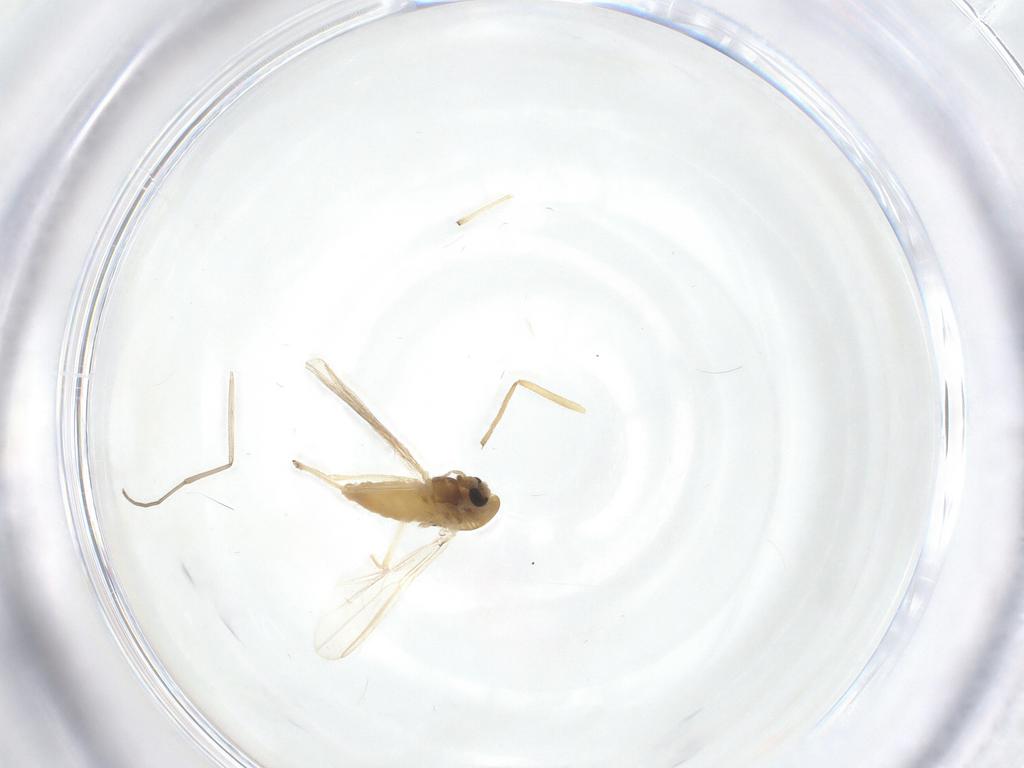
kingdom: Animalia
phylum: Arthropoda
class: Insecta
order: Diptera
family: Chironomidae
